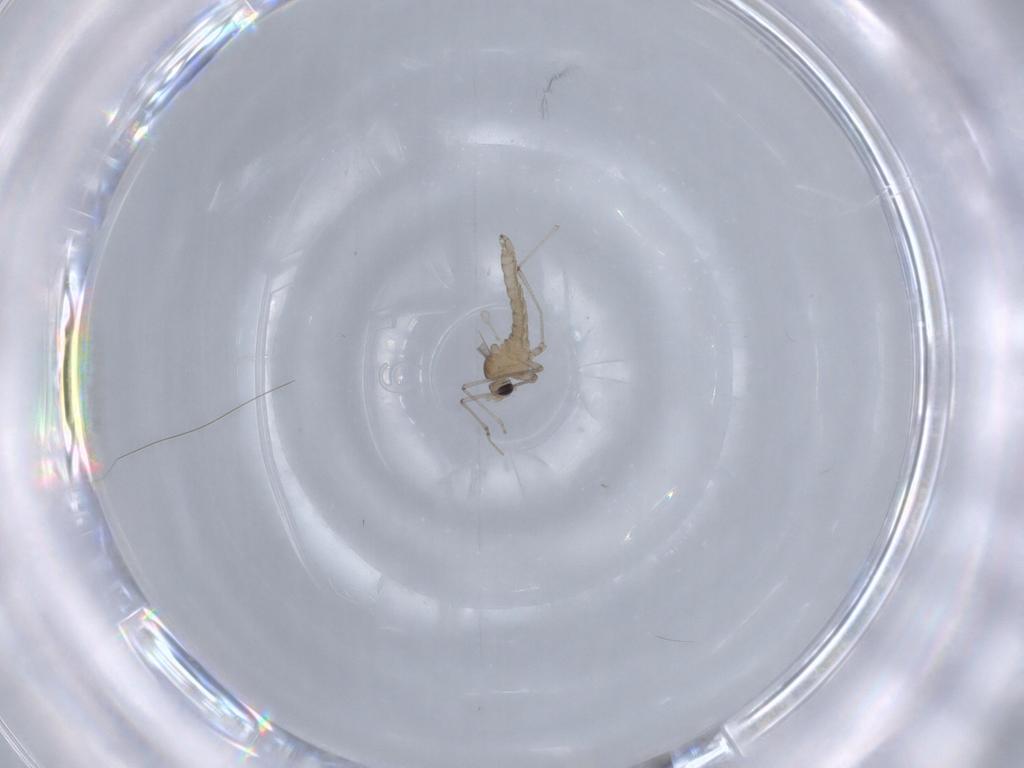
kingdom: Animalia
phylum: Arthropoda
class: Insecta
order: Diptera
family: Cecidomyiidae
